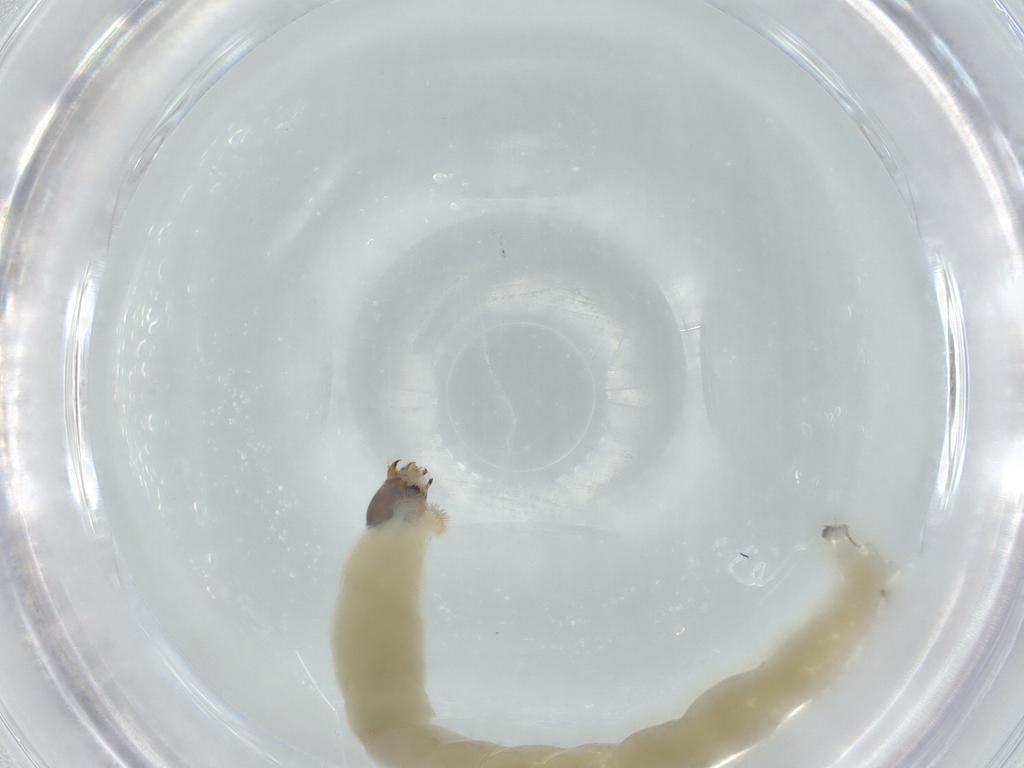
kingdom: Animalia
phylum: Arthropoda
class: Insecta
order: Diptera
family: Chironomidae
